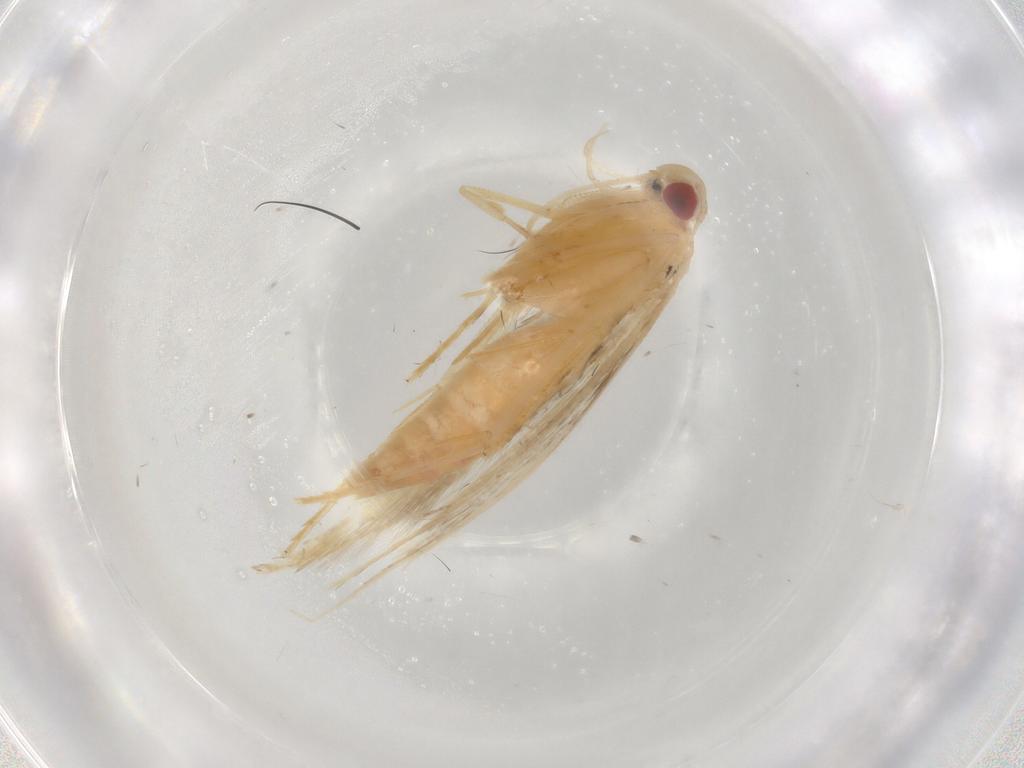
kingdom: Animalia
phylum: Arthropoda
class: Insecta
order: Lepidoptera
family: Cosmopterigidae
